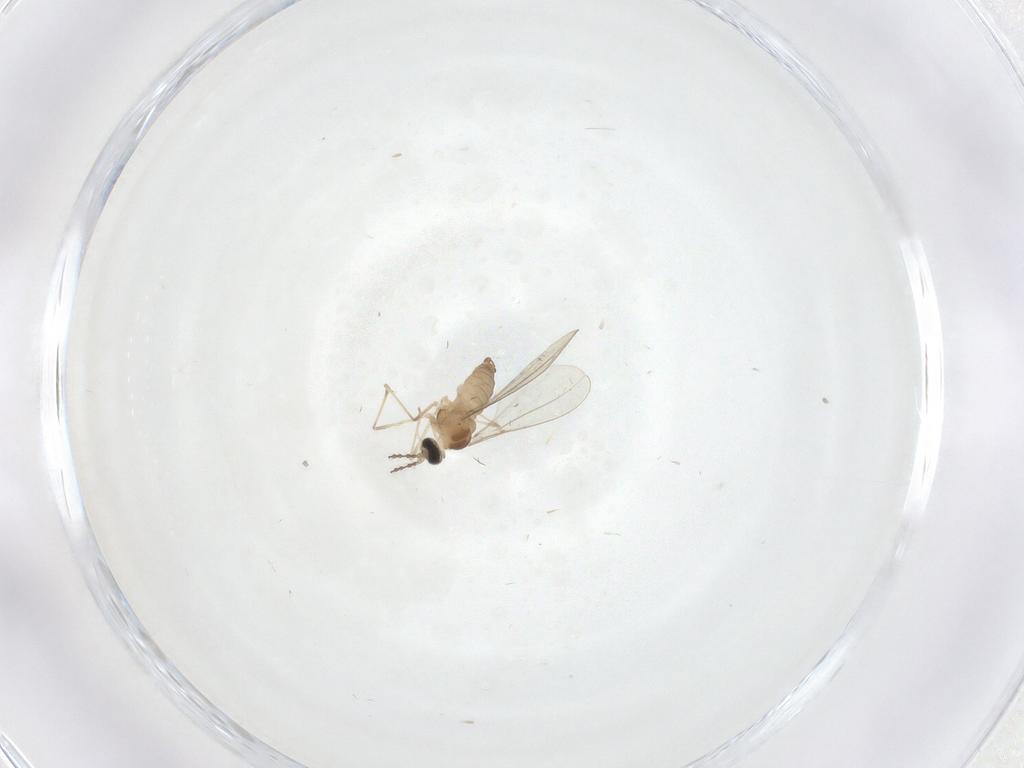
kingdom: Animalia
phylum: Arthropoda
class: Insecta
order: Diptera
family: Cecidomyiidae
